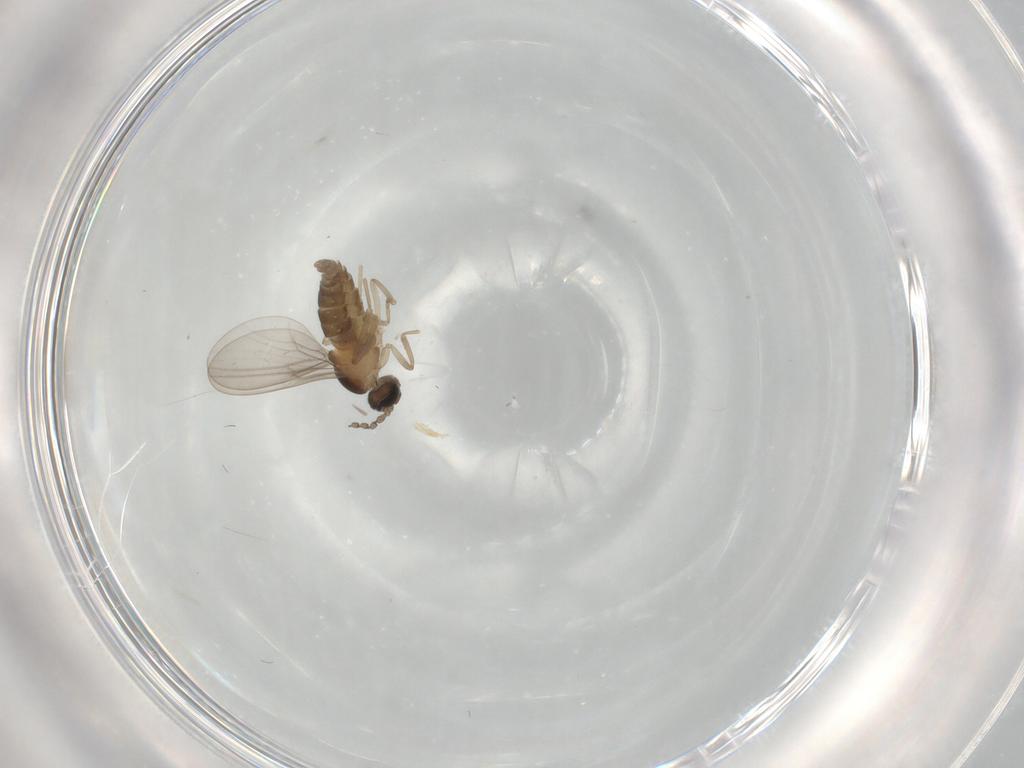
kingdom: Animalia
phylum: Arthropoda
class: Insecta
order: Diptera
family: Cecidomyiidae
